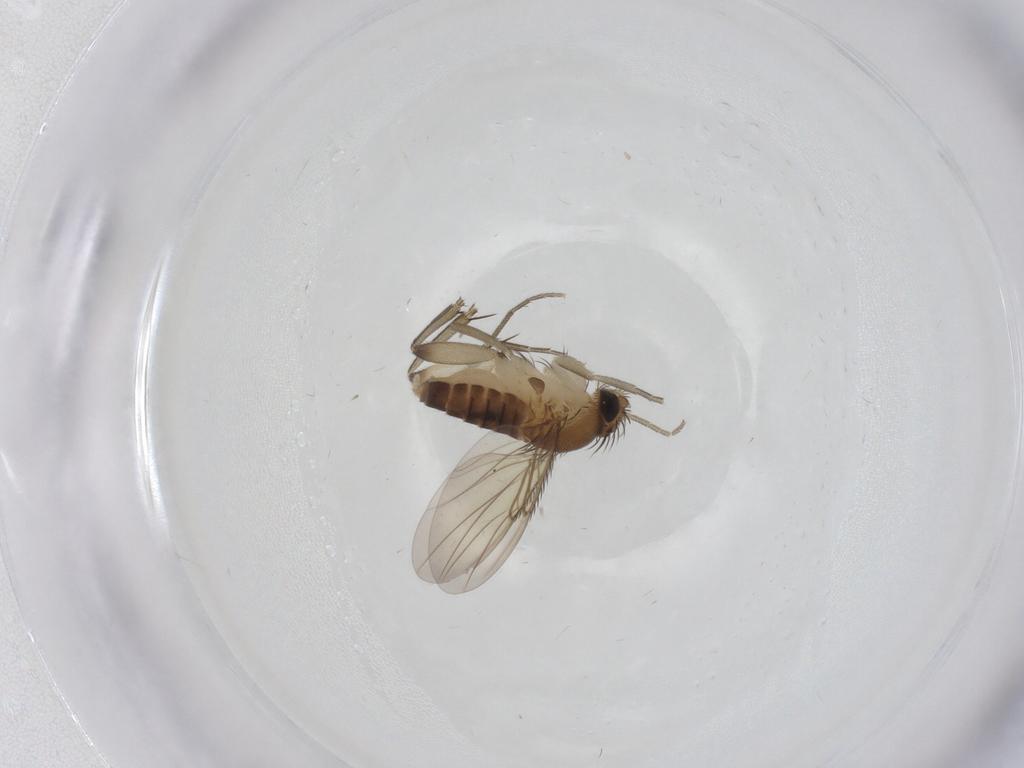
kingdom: Animalia
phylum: Arthropoda
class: Insecta
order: Diptera
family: Phoridae
